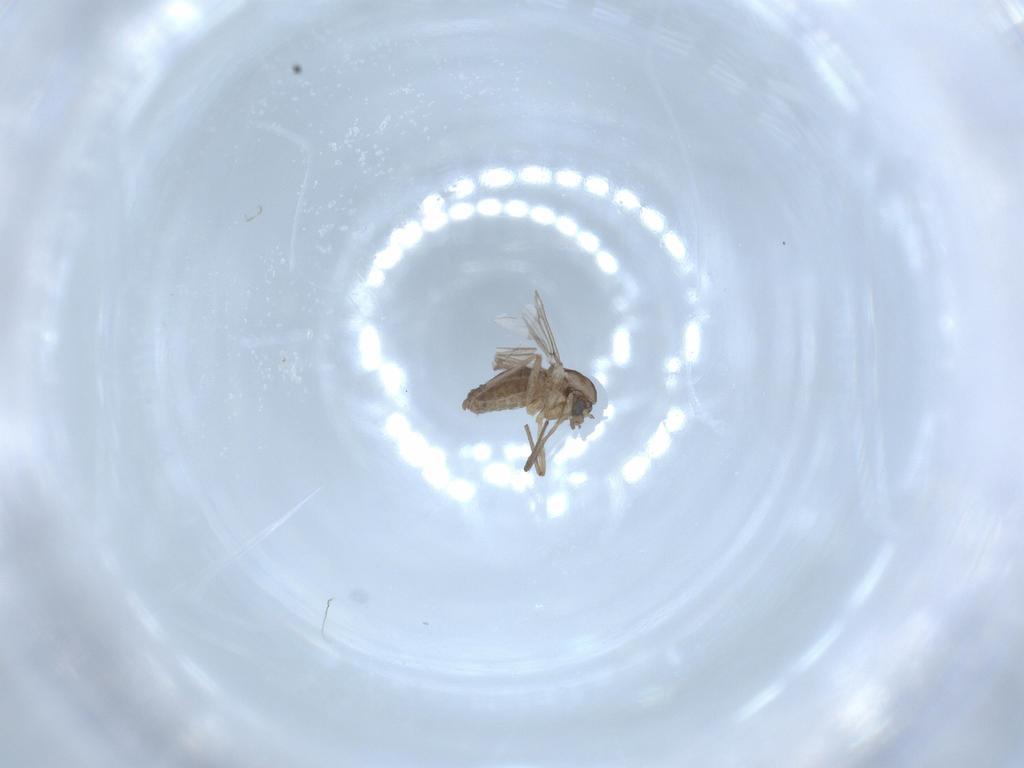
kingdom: Animalia
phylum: Arthropoda
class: Insecta
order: Diptera
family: Chironomidae
